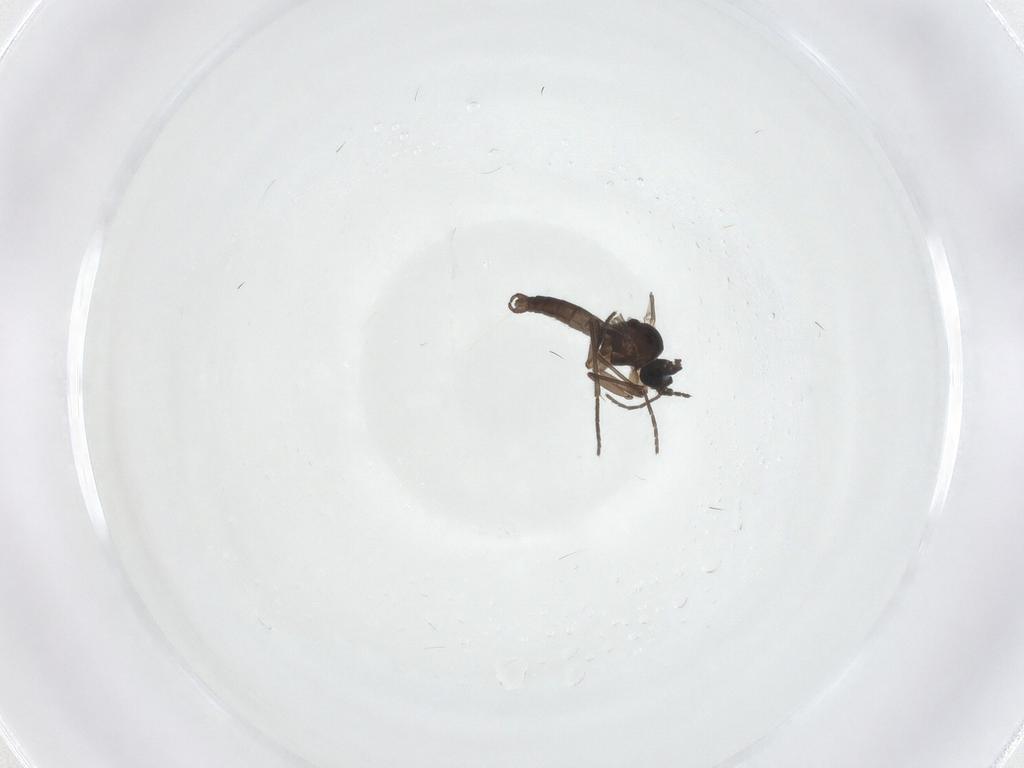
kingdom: Animalia
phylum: Arthropoda
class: Insecta
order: Diptera
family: Sciaridae
